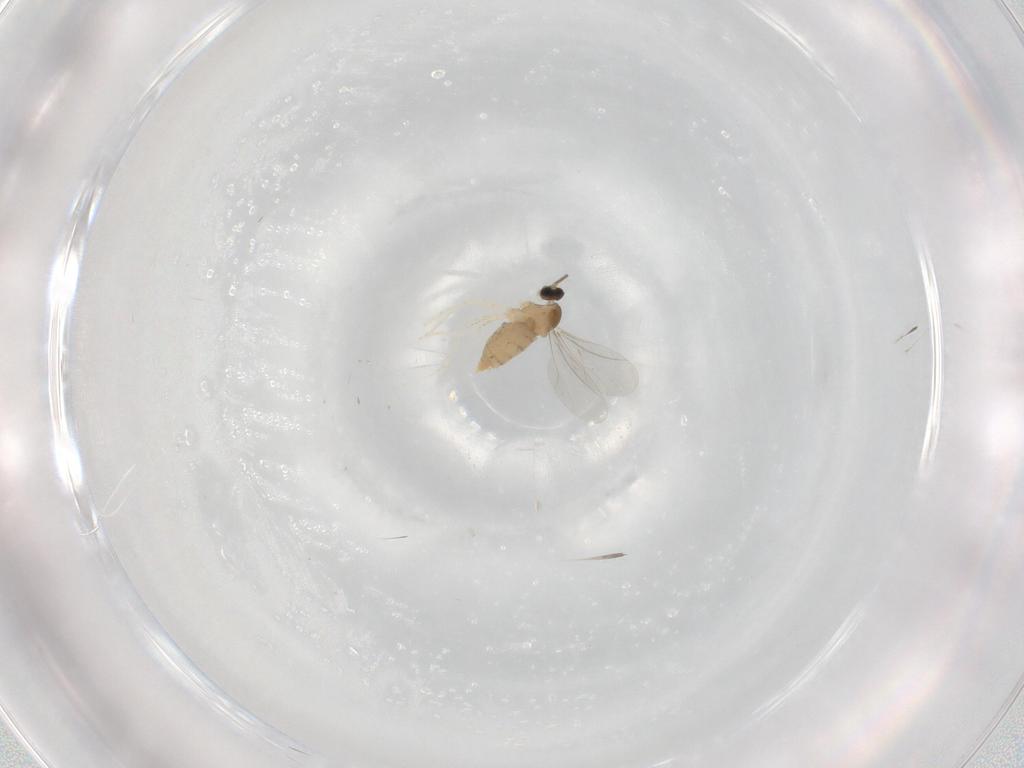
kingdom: Animalia
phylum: Arthropoda
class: Insecta
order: Diptera
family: Cecidomyiidae
